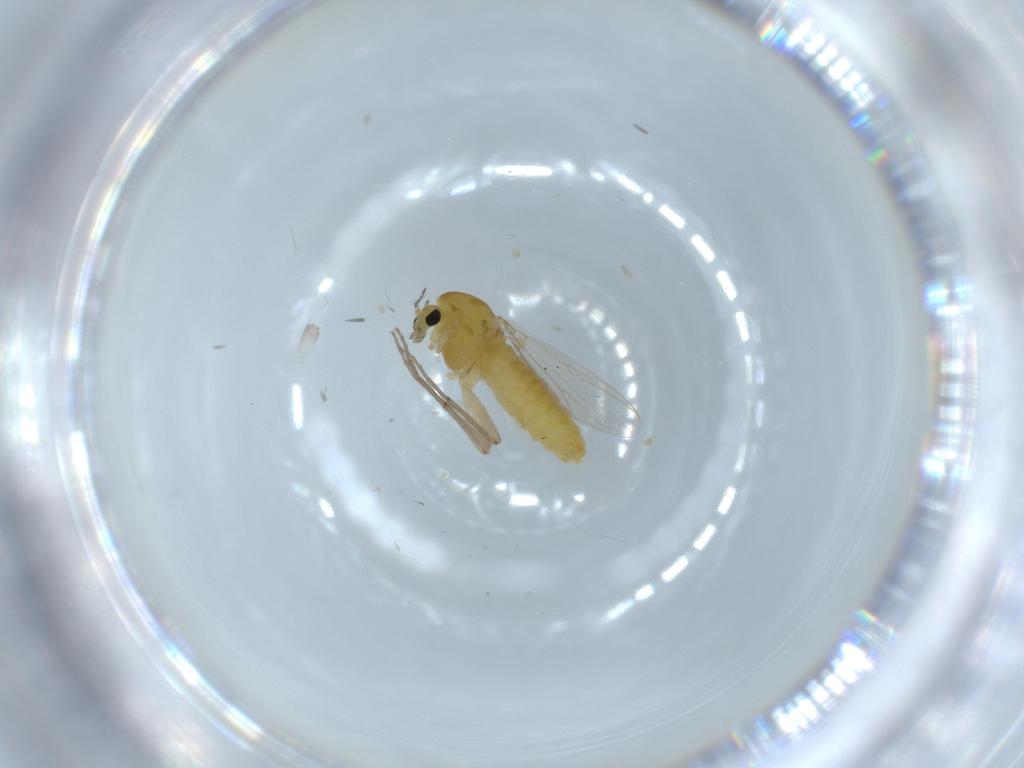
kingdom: Animalia
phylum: Arthropoda
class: Insecta
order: Diptera
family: Chironomidae
